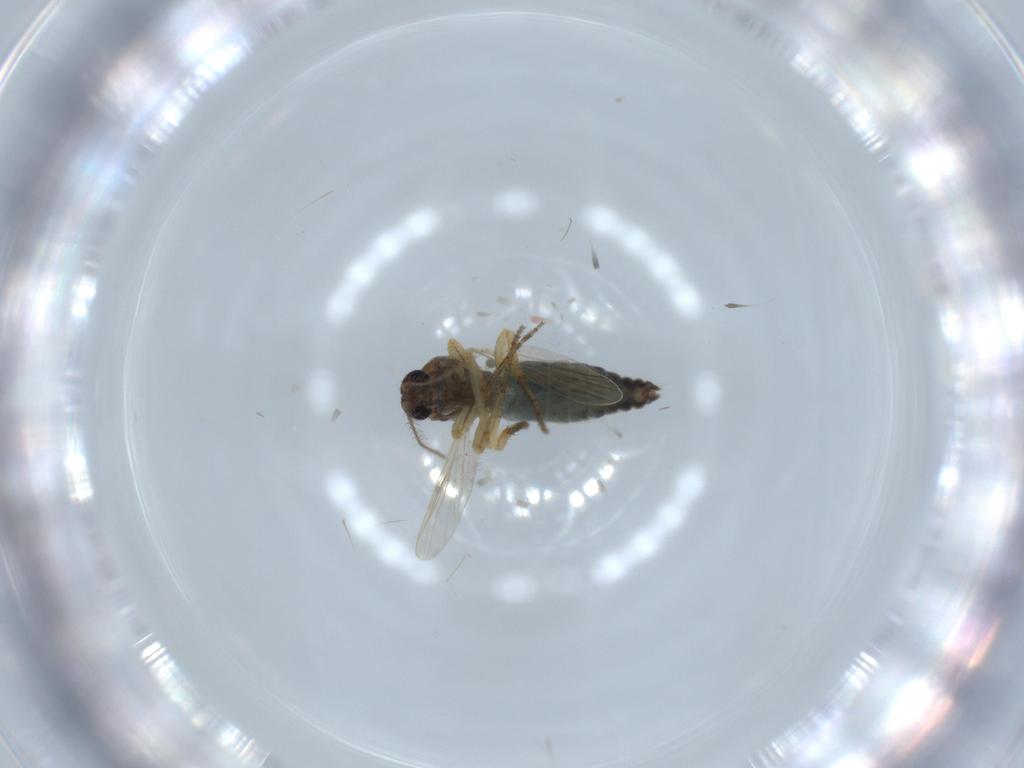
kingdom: Animalia
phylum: Arthropoda
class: Insecta
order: Diptera
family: Ceratopogonidae
